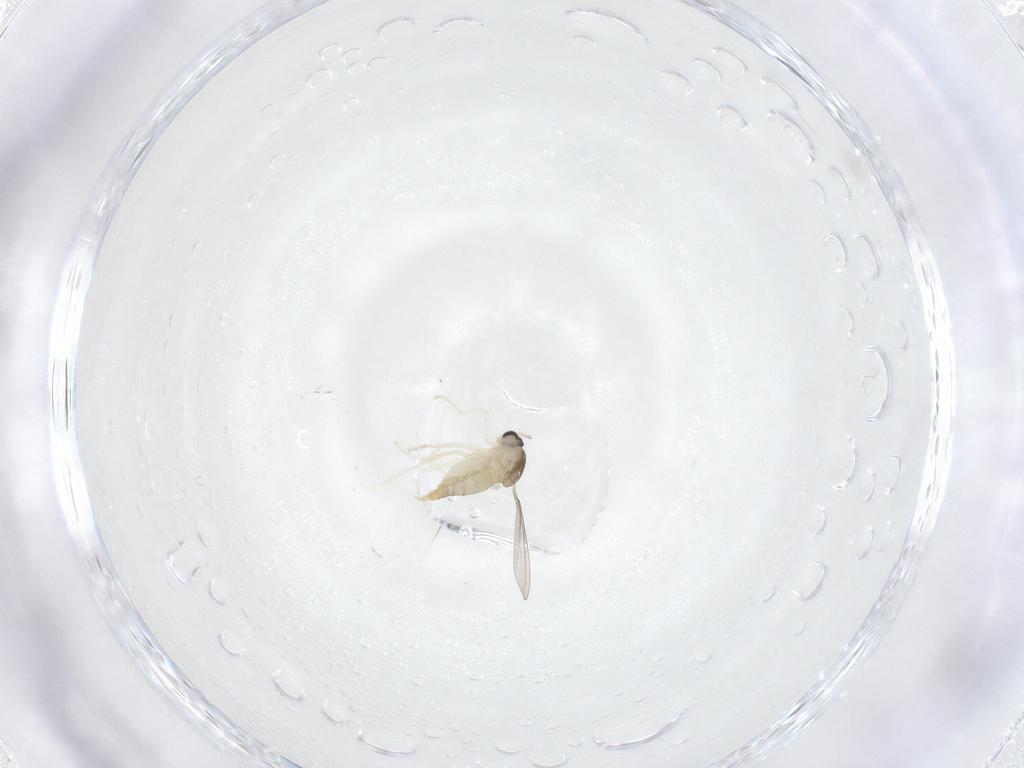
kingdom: Animalia
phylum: Arthropoda
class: Insecta
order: Diptera
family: Cecidomyiidae
